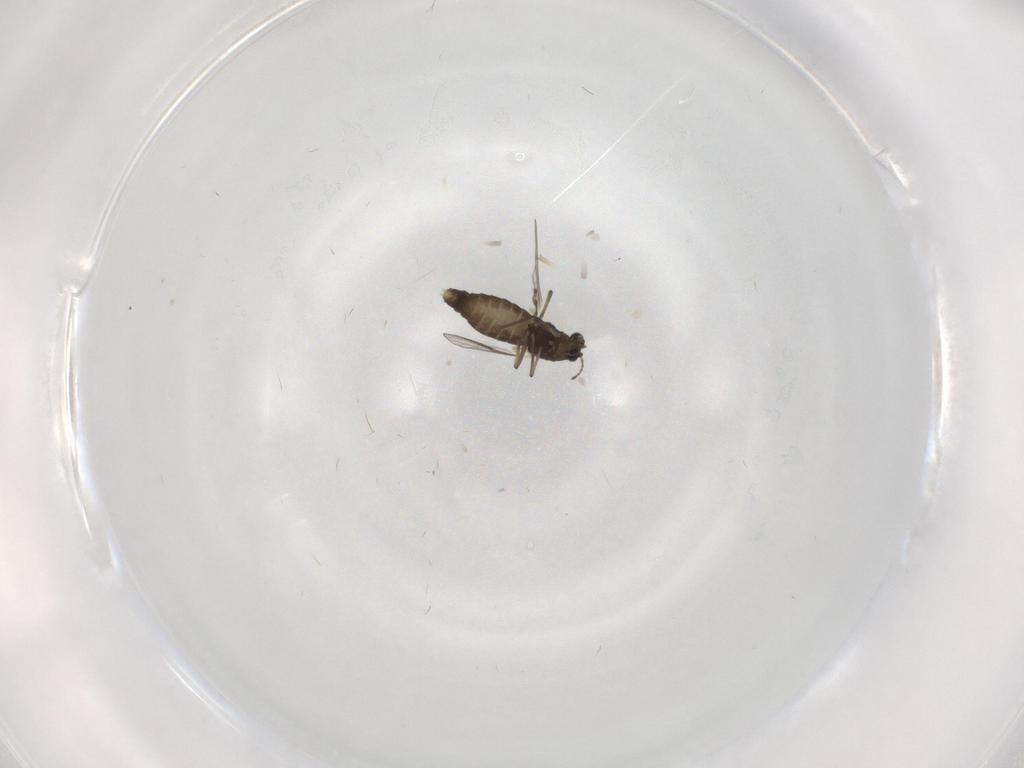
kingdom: Animalia
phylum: Arthropoda
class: Insecta
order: Diptera
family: Chironomidae
